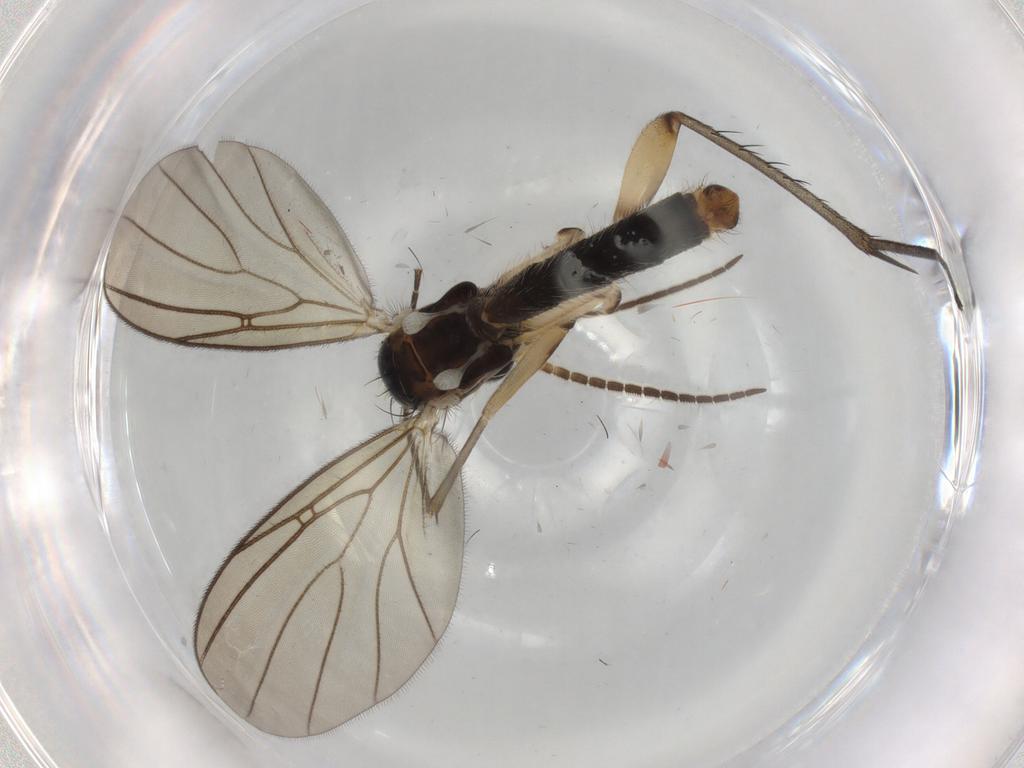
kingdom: Animalia
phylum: Arthropoda
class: Insecta
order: Diptera
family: Mycetophilidae
